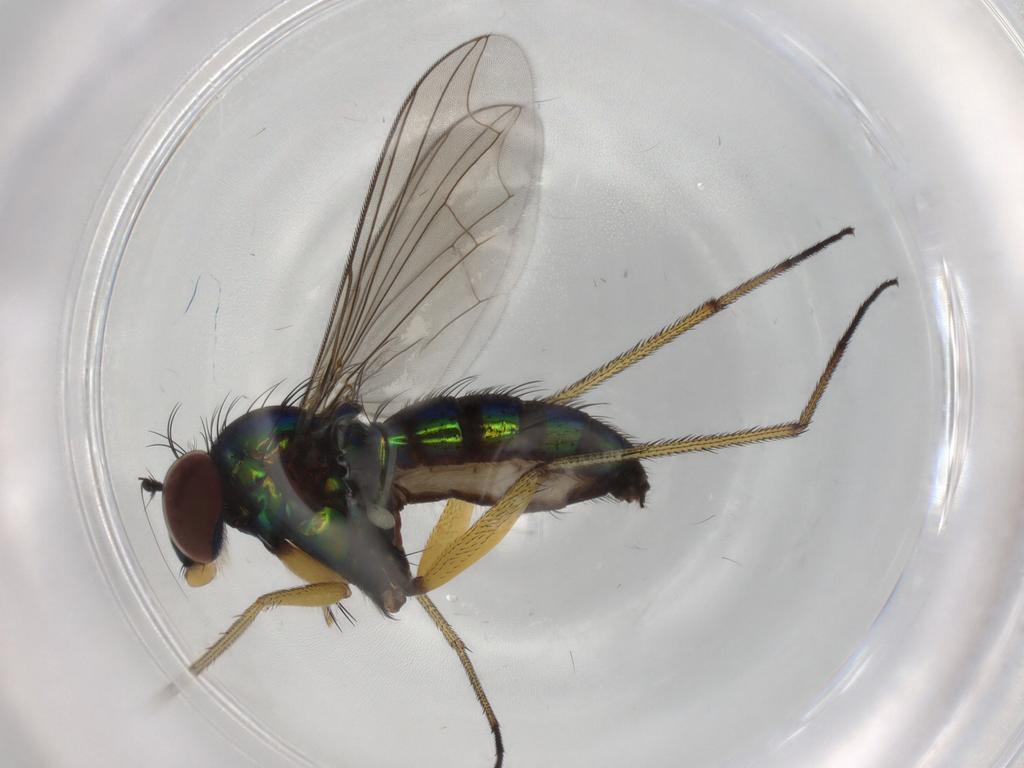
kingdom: Animalia
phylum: Arthropoda
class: Insecta
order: Diptera
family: Dolichopodidae
